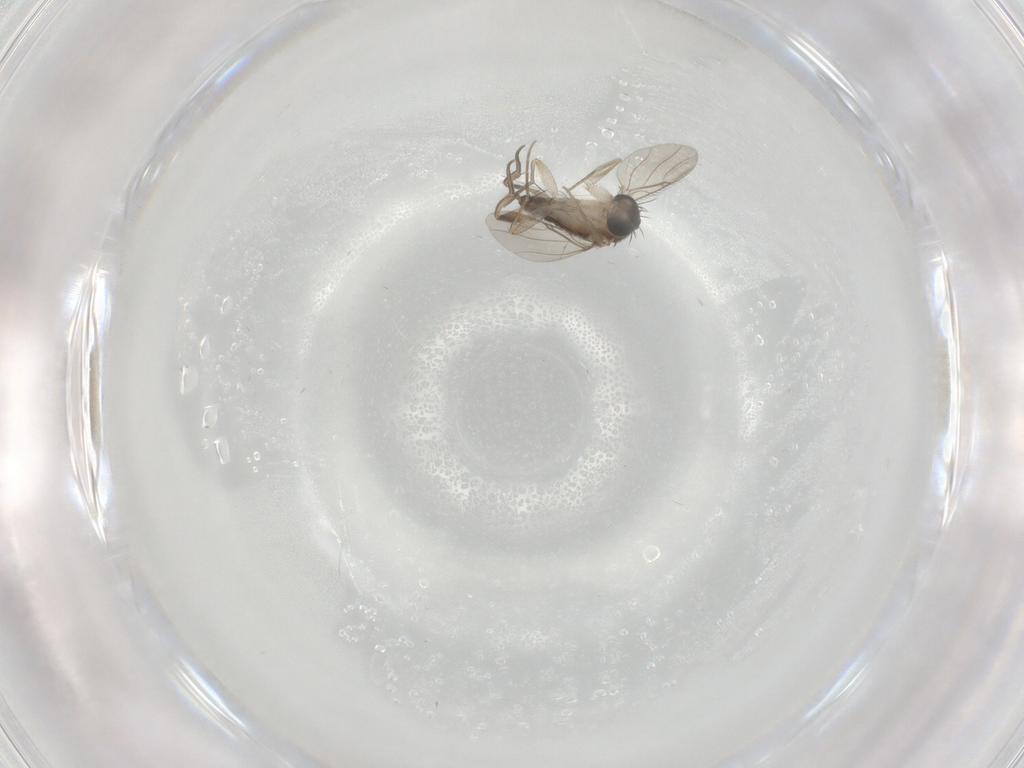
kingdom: Animalia
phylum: Arthropoda
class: Insecta
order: Diptera
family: Phoridae
